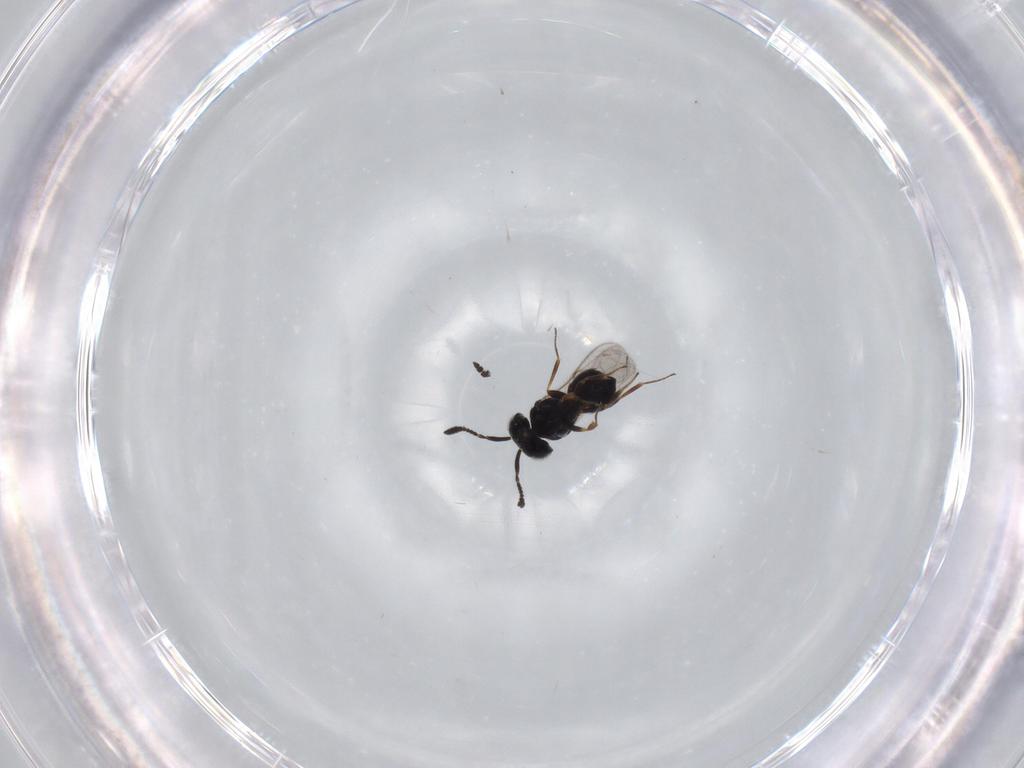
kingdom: Animalia
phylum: Arthropoda
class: Insecta
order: Hymenoptera
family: Scelionidae
